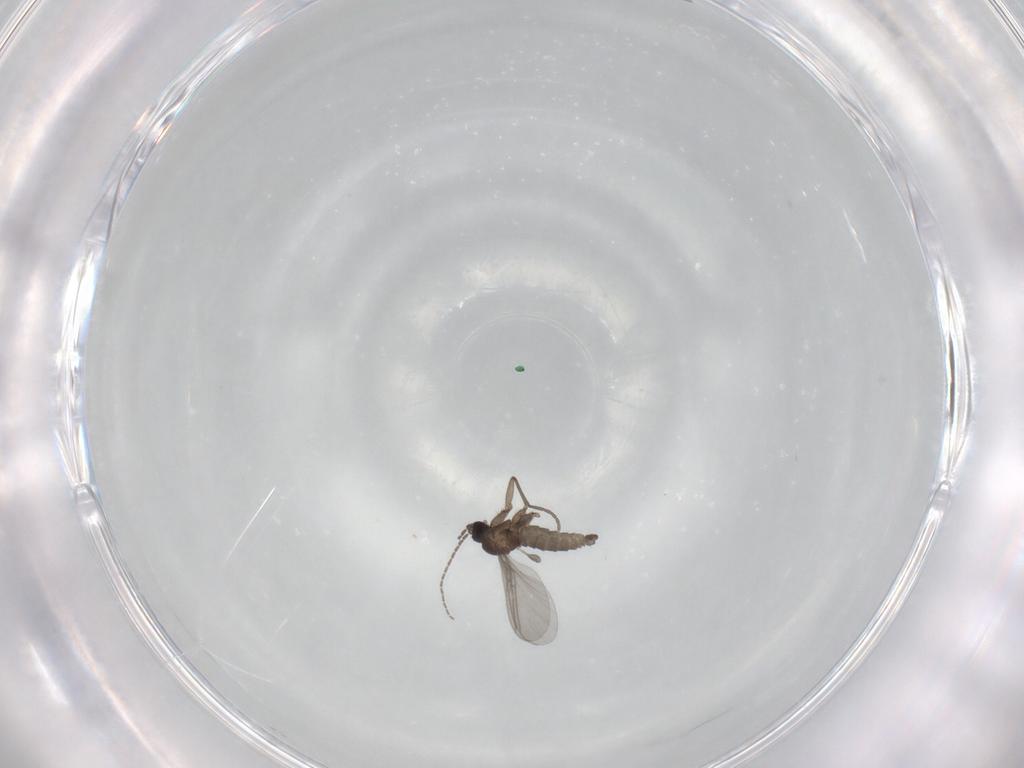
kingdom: Animalia
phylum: Arthropoda
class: Insecta
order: Diptera
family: Sciaridae
